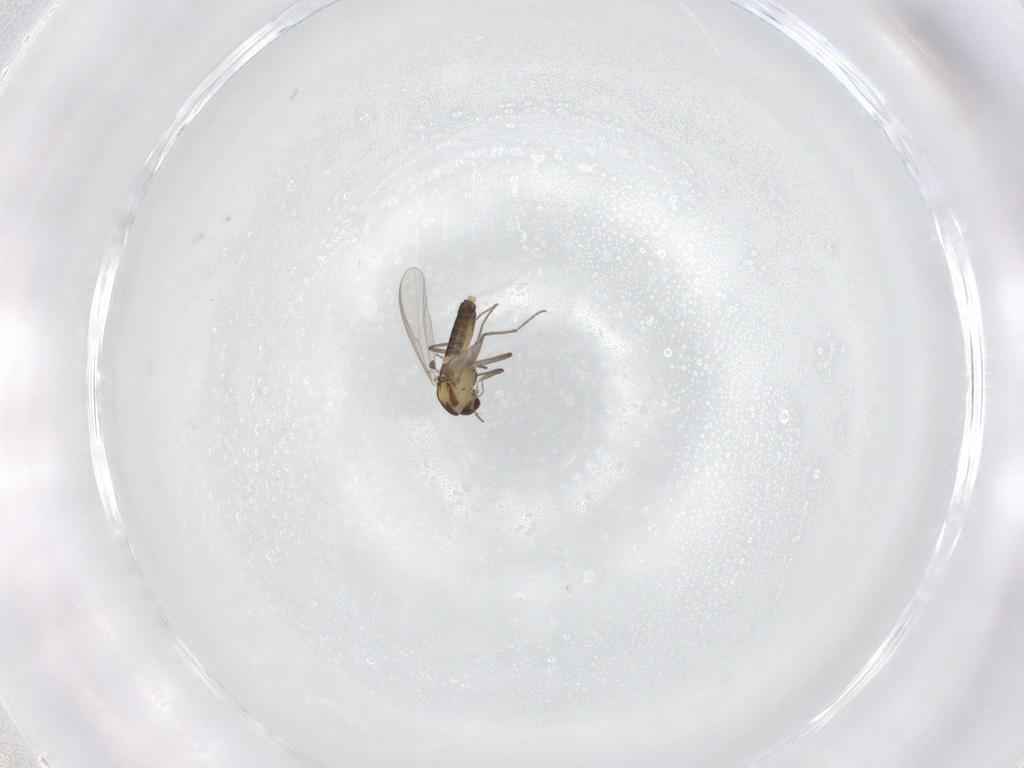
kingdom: Animalia
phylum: Arthropoda
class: Insecta
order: Diptera
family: Chironomidae
